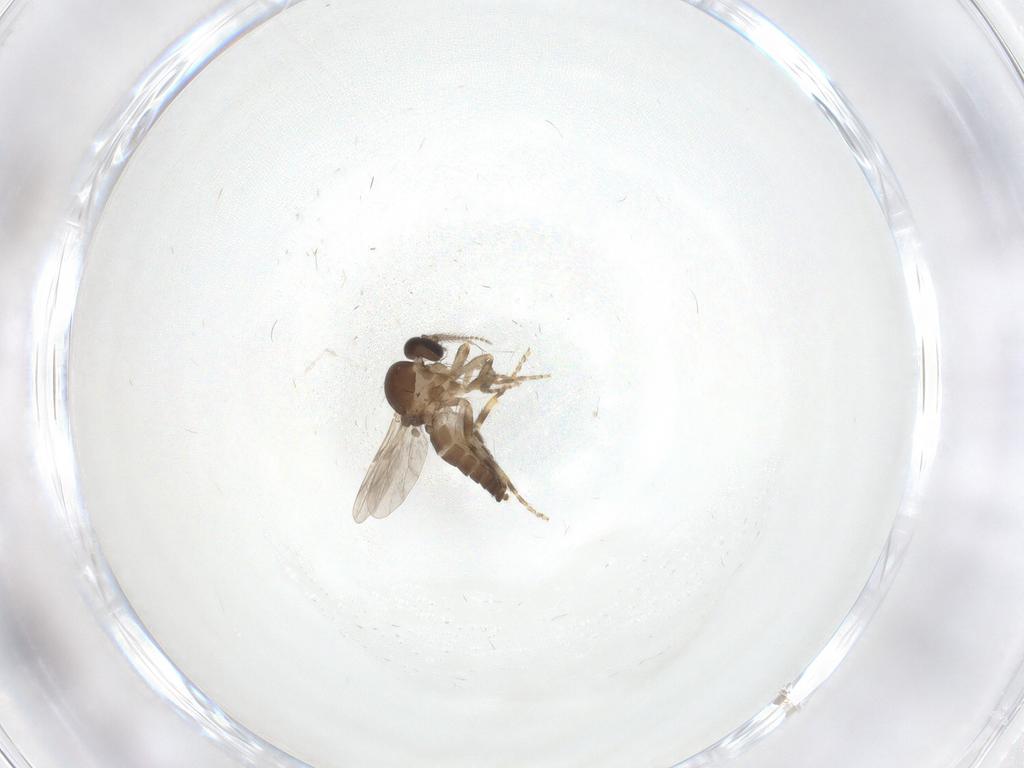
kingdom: Animalia
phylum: Arthropoda
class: Insecta
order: Diptera
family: Ceratopogonidae
